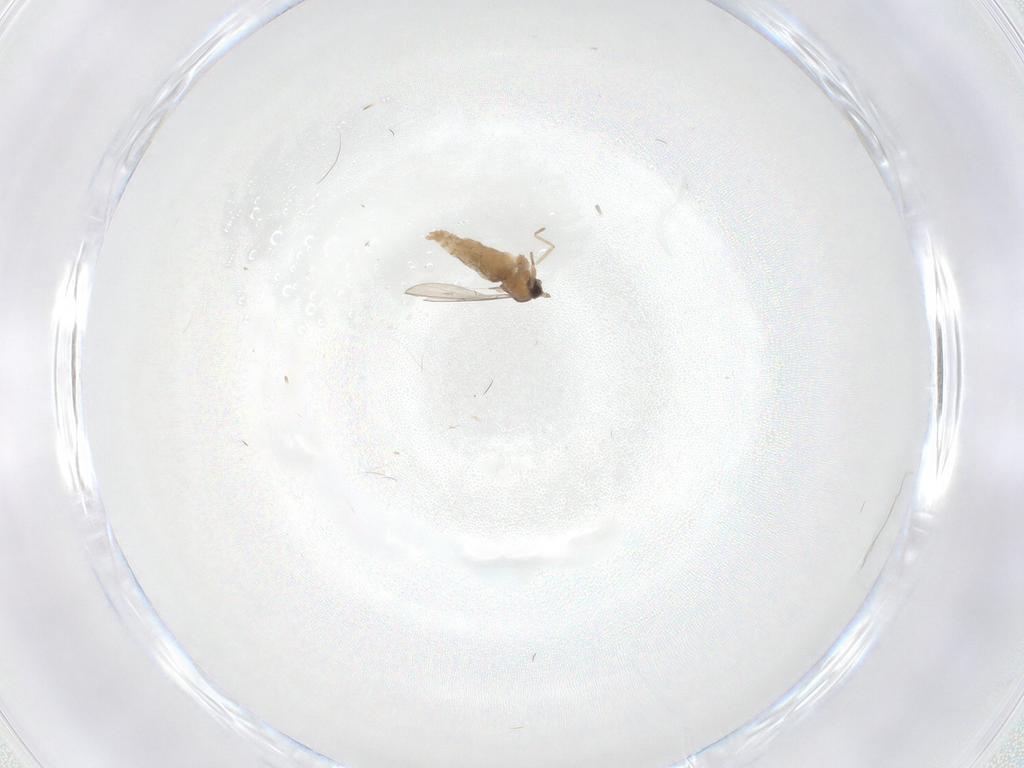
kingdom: Animalia
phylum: Arthropoda
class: Insecta
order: Diptera
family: Cecidomyiidae
